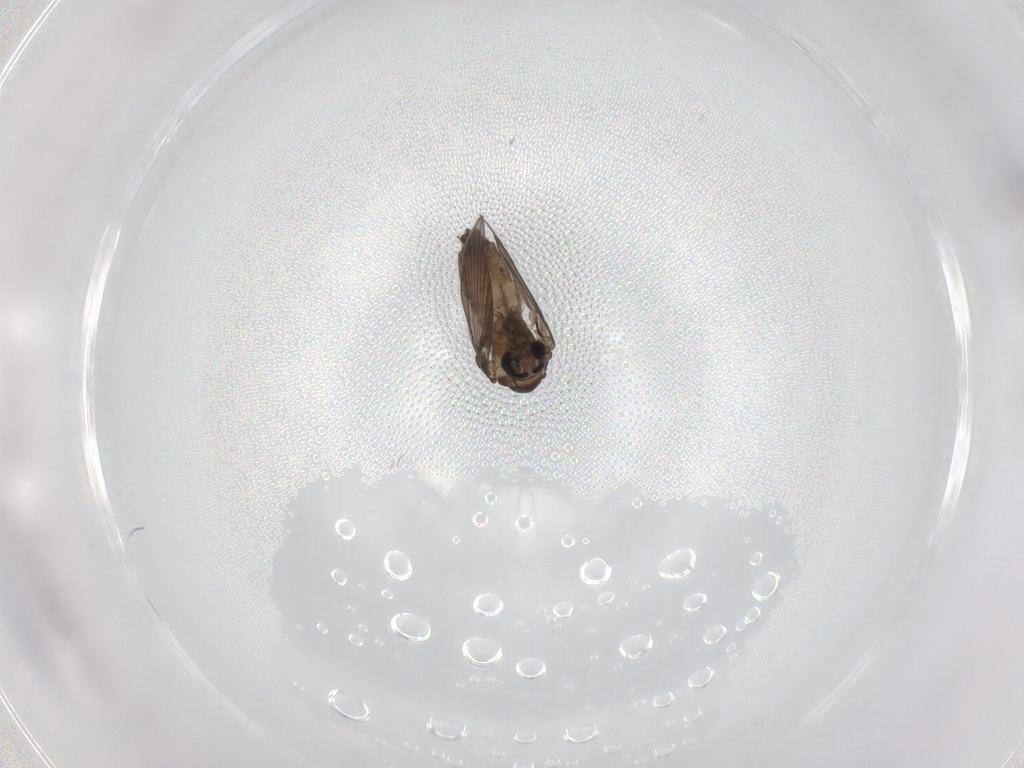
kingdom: Animalia
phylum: Arthropoda
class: Insecta
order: Diptera
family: Psychodidae
